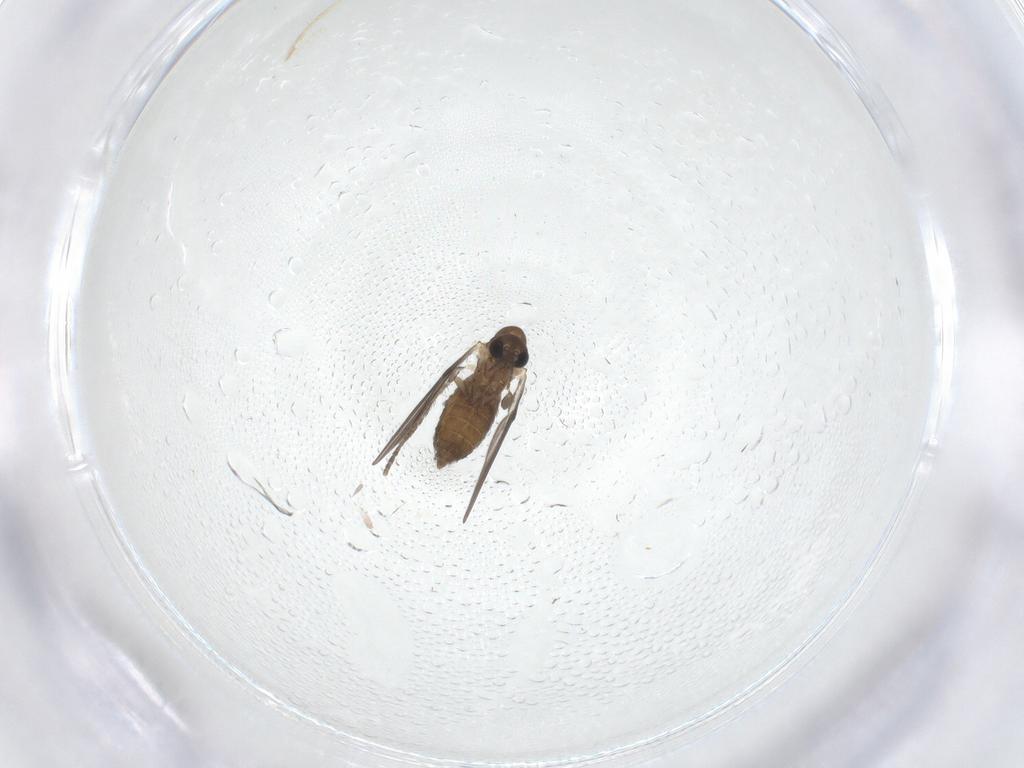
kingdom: Animalia
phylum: Arthropoda
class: Insecta
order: Diptera
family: Psychodidae
